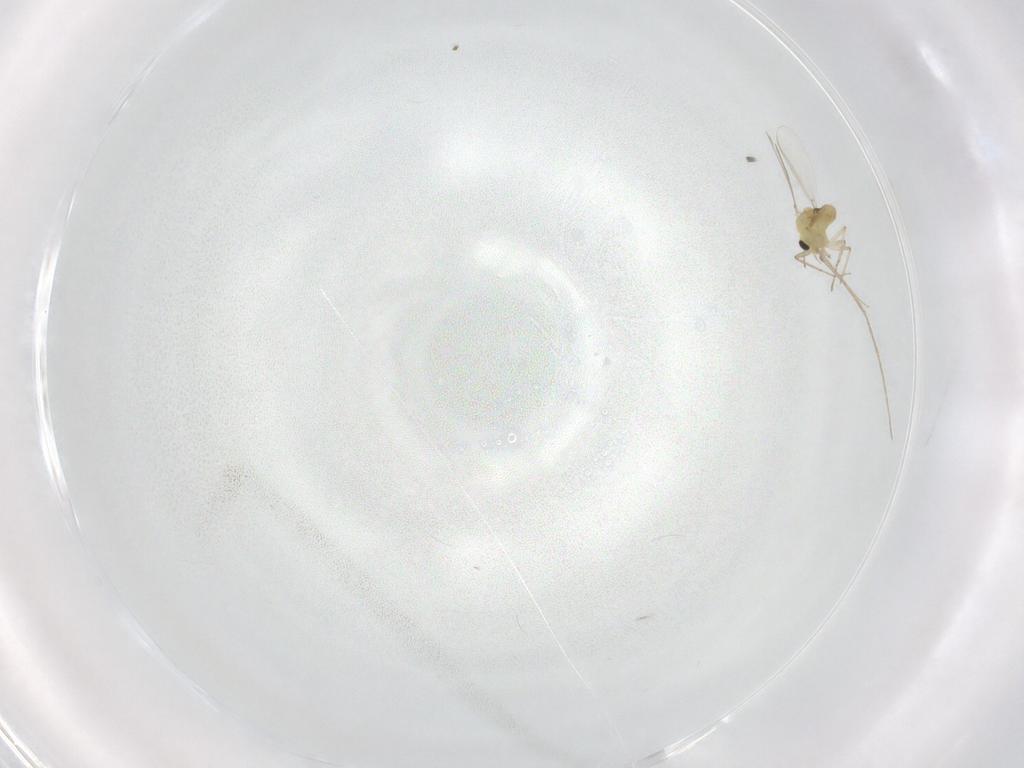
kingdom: Animalia
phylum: Arthropoda
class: Insecta
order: Diptera
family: Chironomidae
